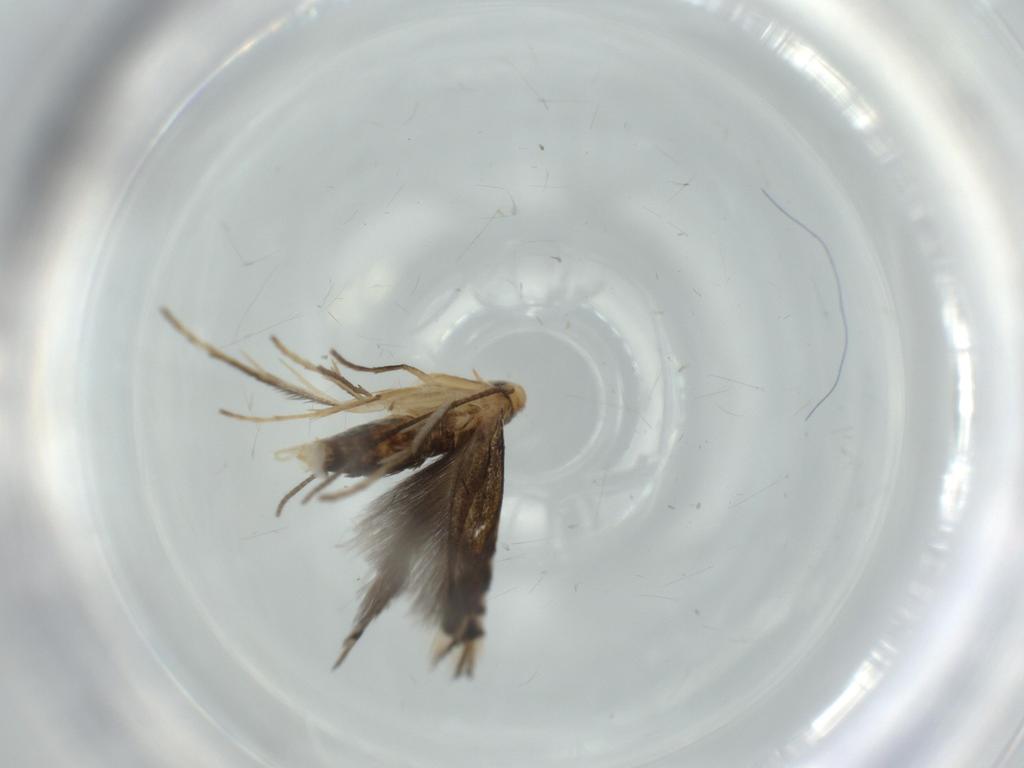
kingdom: Animalia
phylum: Arthropoda
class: Insecta
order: Lepidoptera
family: Gracillariidae
